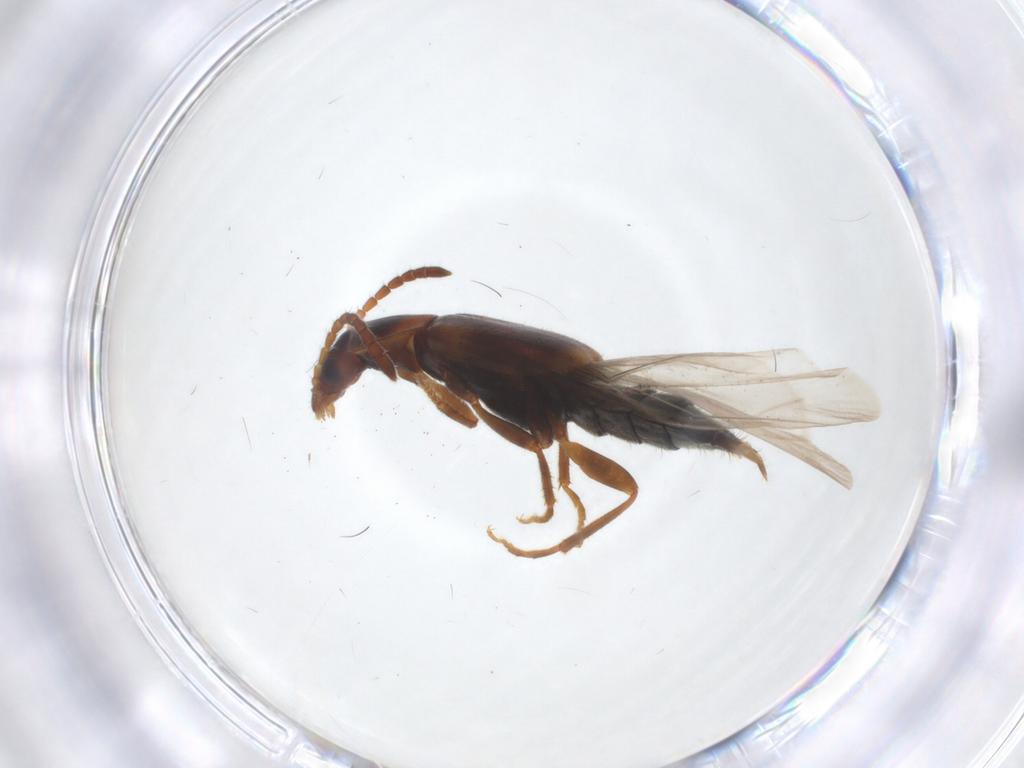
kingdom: Animalia
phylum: Arthropoda
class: Insecta
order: Coleoptera
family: Staphylinidae
